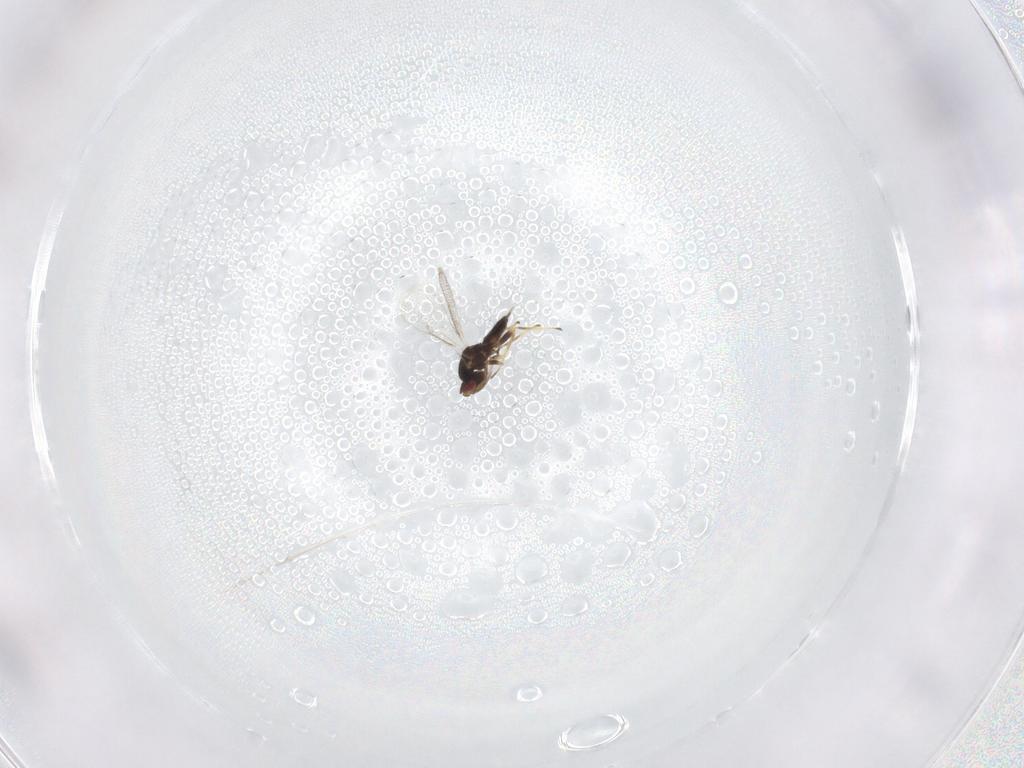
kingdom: Animalia
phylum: Arthropoda
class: Insecta
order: Hymenoptera
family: Eulophidae
